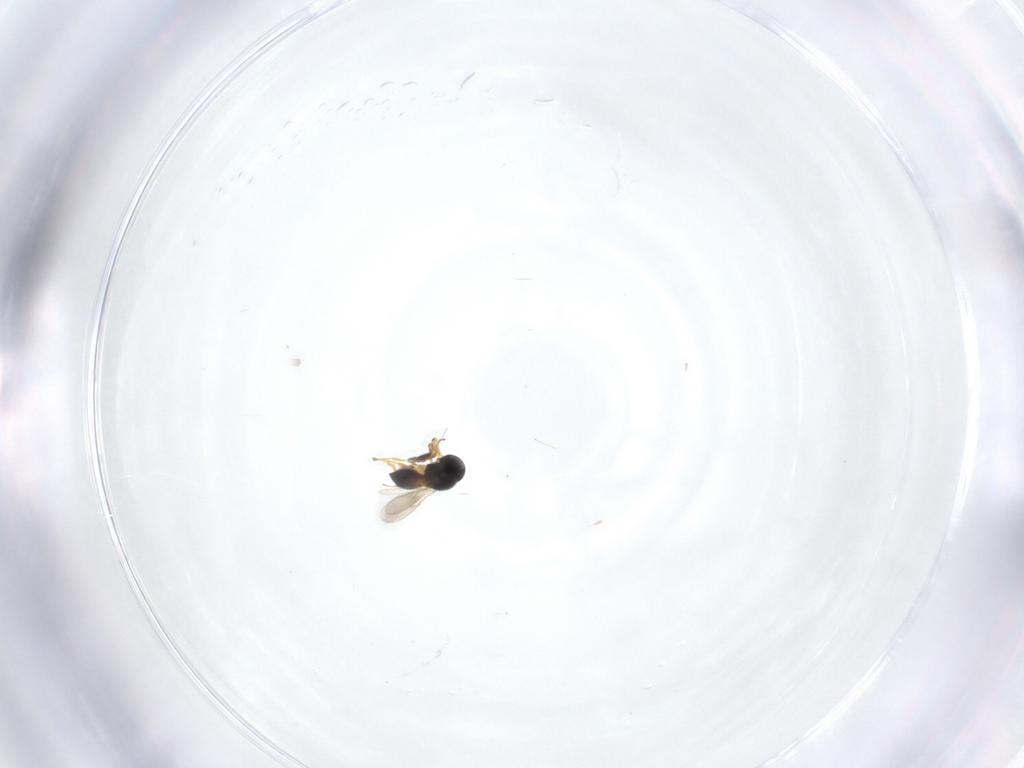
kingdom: Animalia
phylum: Arthropoda
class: Insecta
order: Hymenoptera
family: Scelionidae
